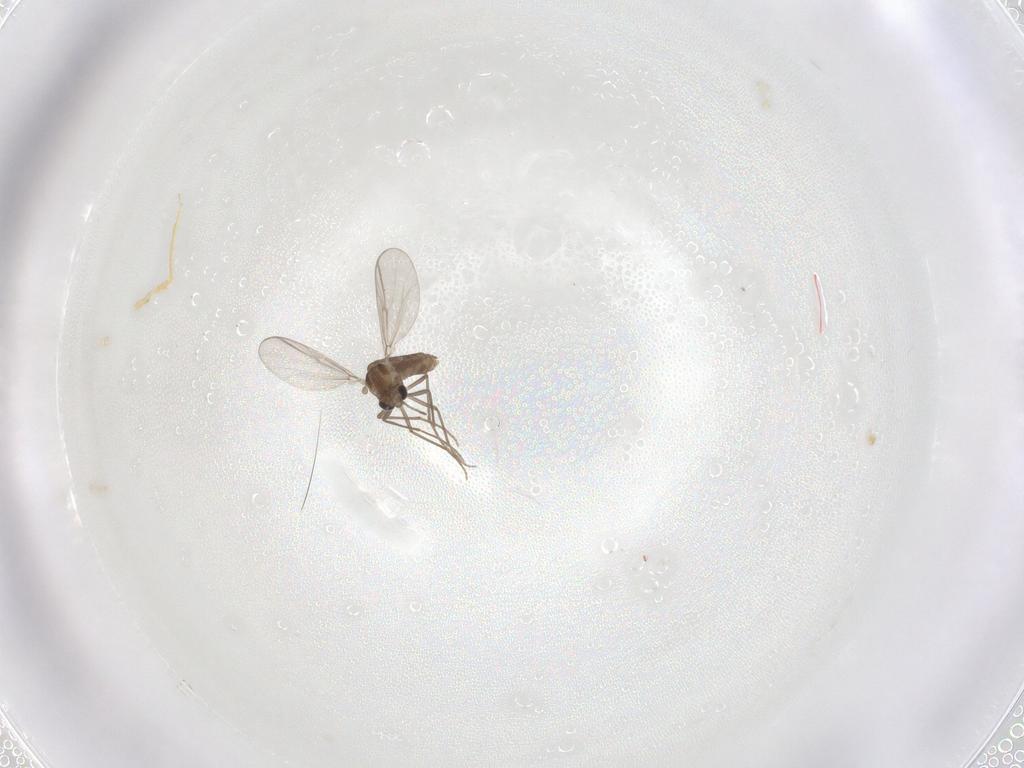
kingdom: Animalia
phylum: Arthropoda
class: Insecta
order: Diptera
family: Chironomidae
